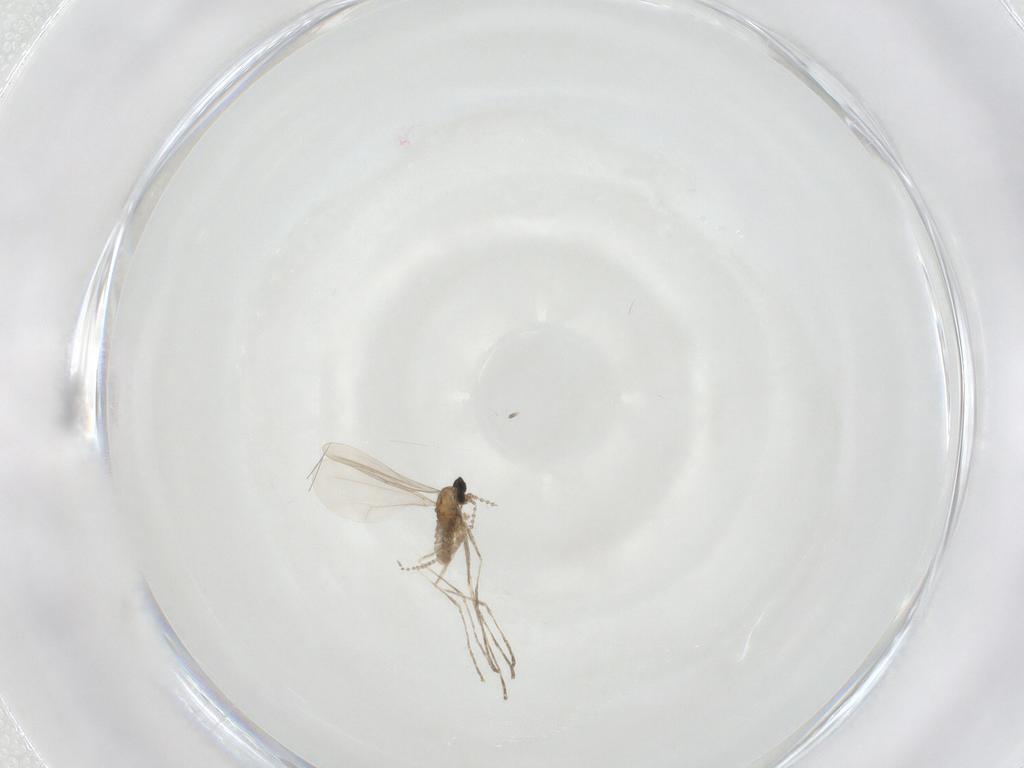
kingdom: Animalia
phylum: Arthropoda
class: Insecta
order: Diptera
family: Cecidomyiidae
